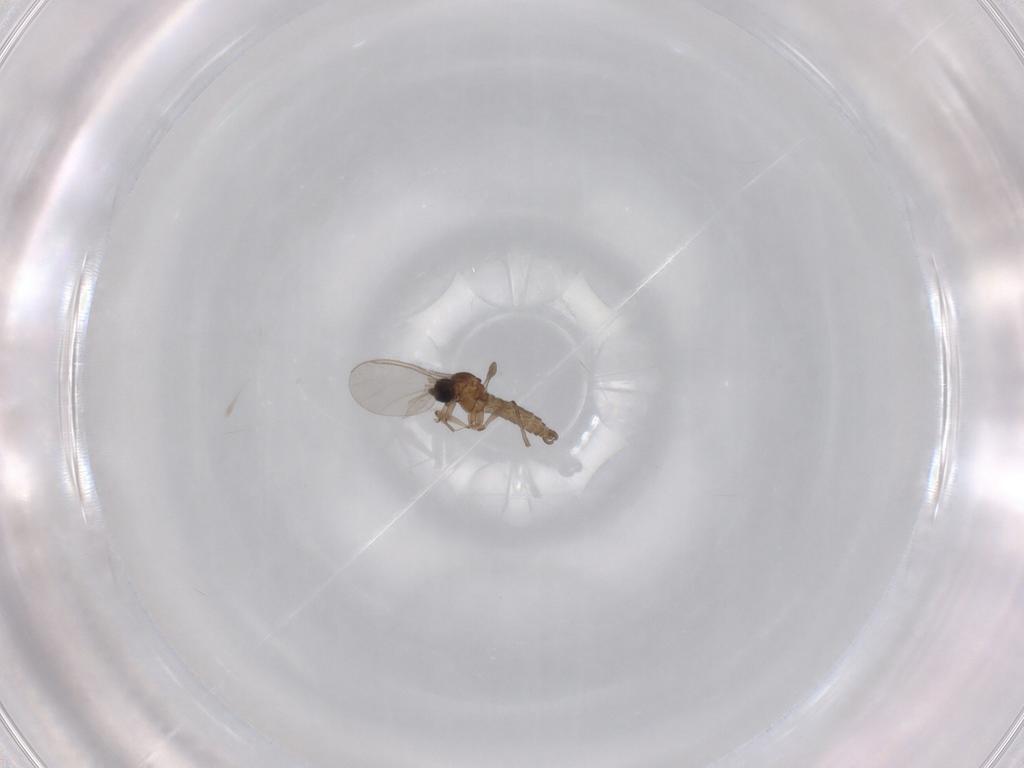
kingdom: Animalia
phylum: Arthropoda
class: Insecta
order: Diptera
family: Sciaridae
